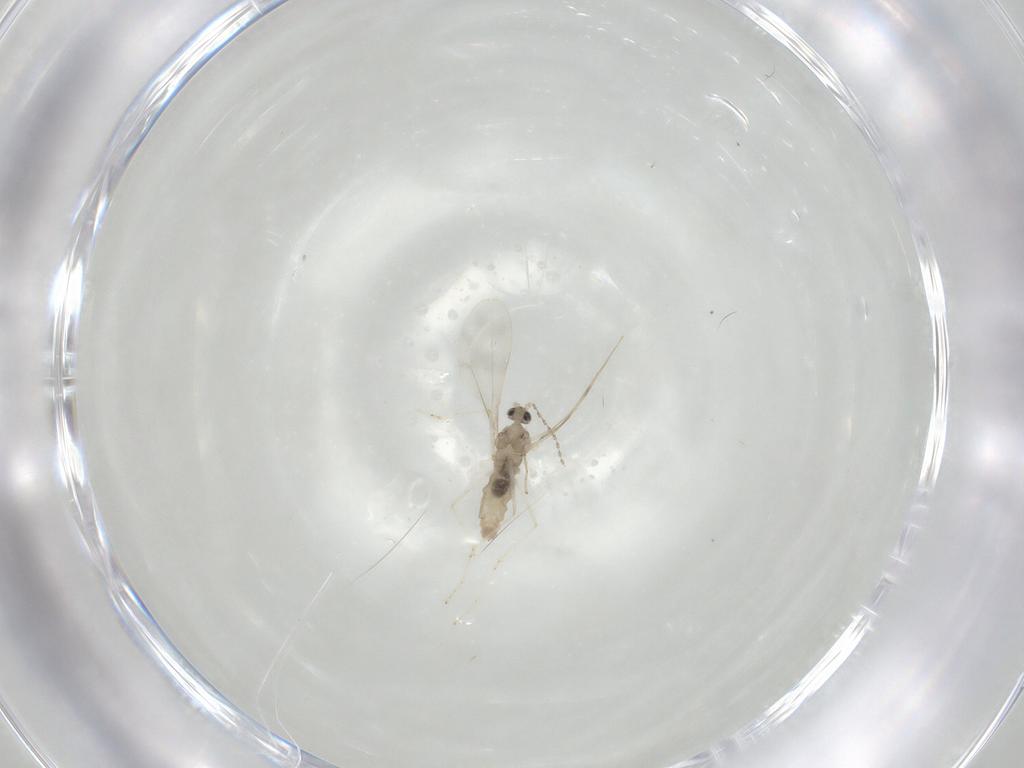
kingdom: Animalia
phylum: Arthropoda
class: Insecta
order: Diptera
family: Cecidomyiidae
